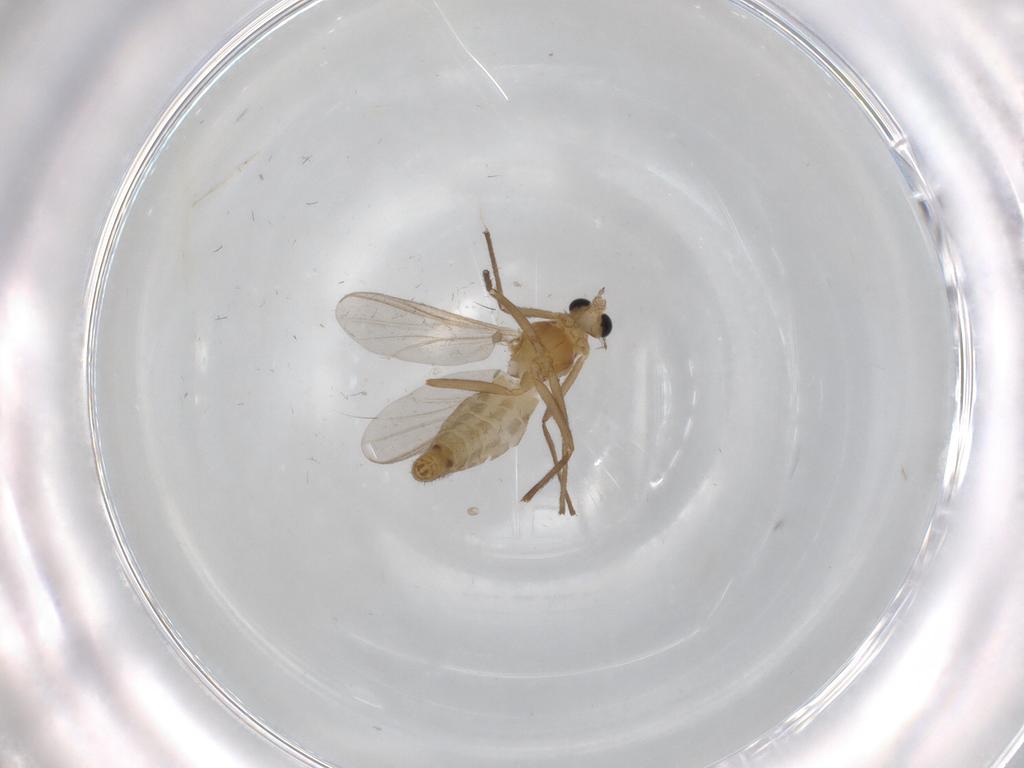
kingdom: Animalia
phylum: Arthropoda
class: Insecta
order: Diptera
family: Chironomidae
